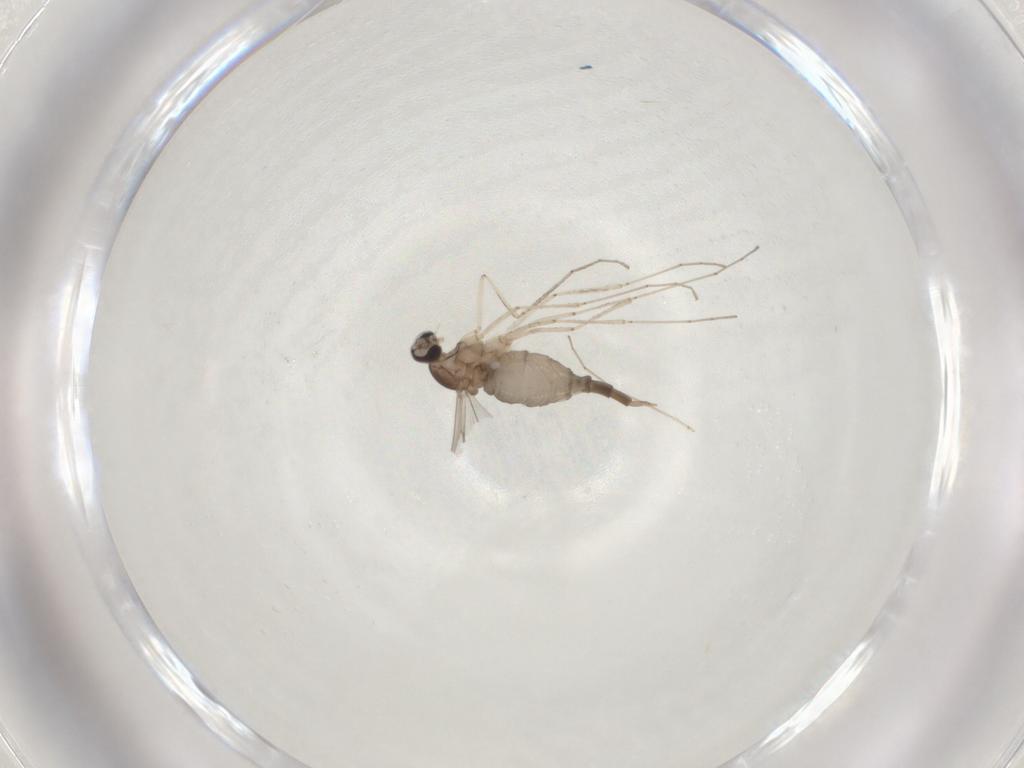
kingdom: Animalia
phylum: Arthropoda
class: Insecta
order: Diptera
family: Cecidomyiidae
